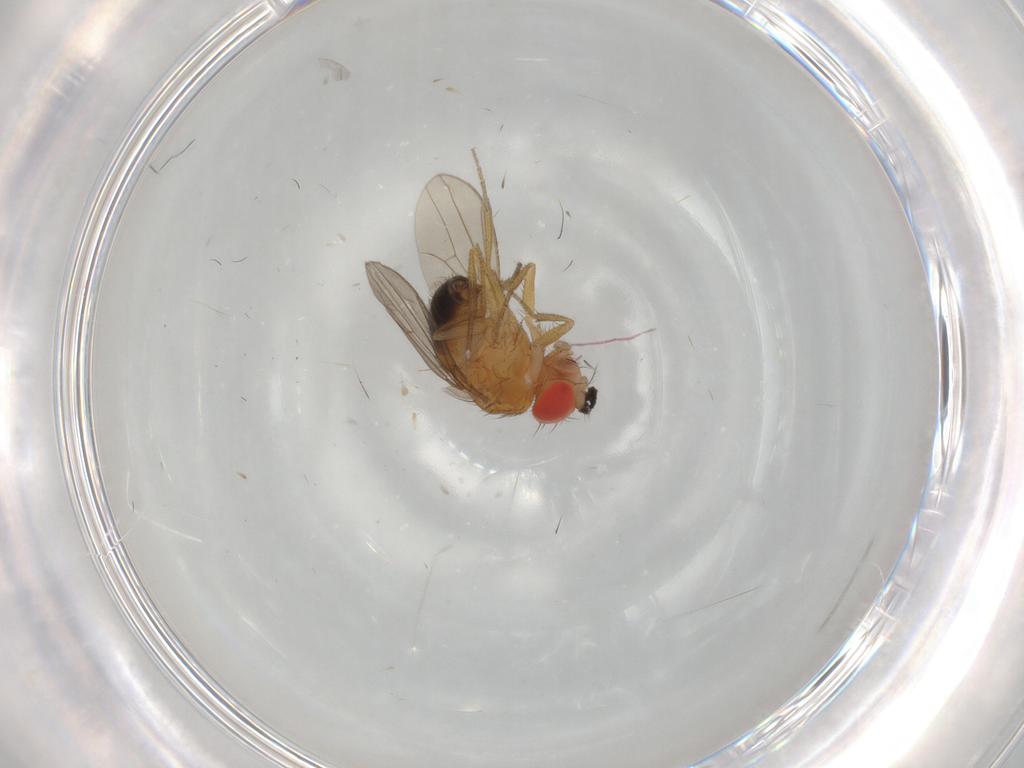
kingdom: Animalia
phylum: Arthropoda
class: Insecta
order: Diptera
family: Drosophilidae
